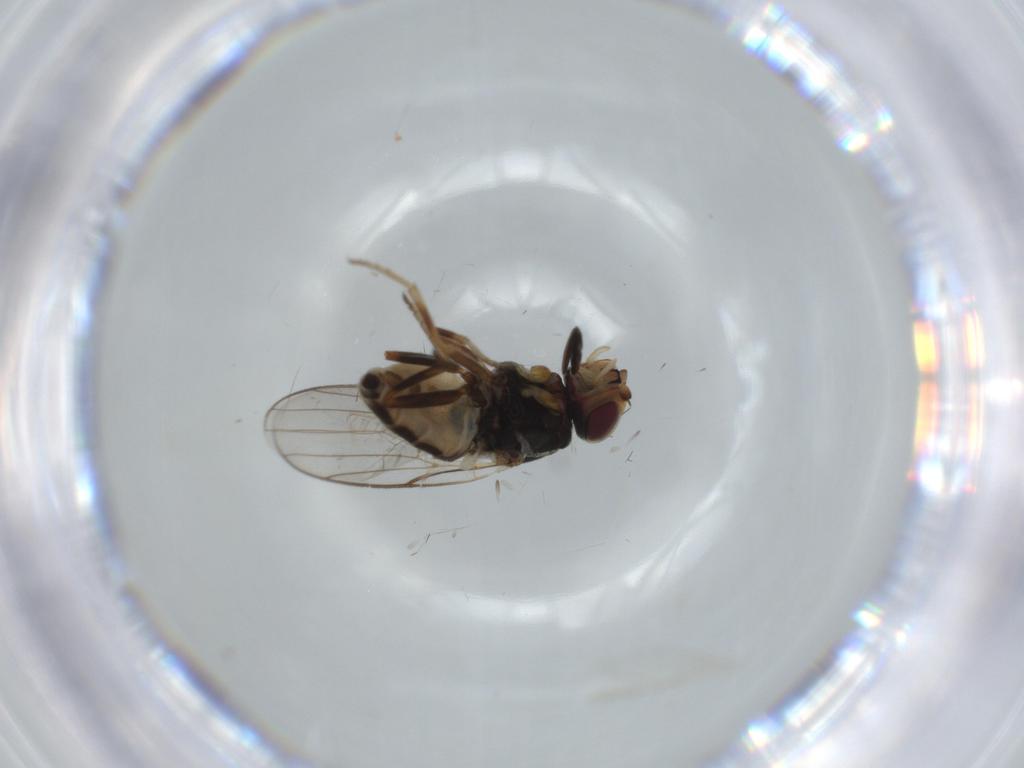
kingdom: Animalia
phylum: Arthropoda
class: Insecta
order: Diptera
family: Chloropidae
